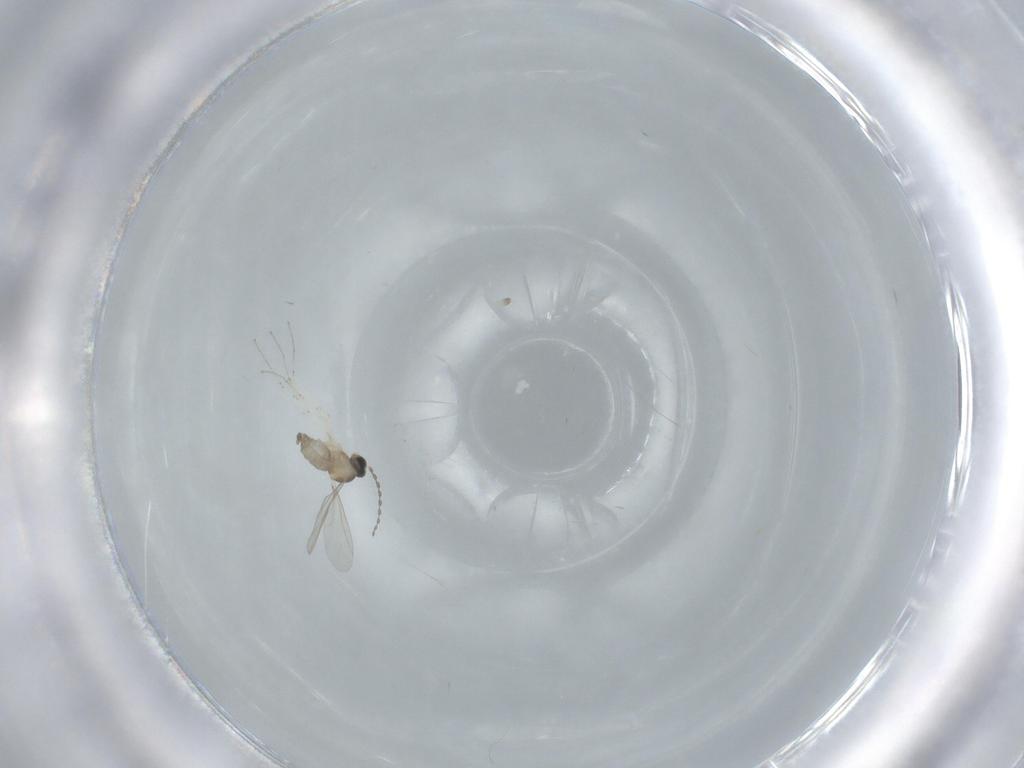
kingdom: Animalia
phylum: Arthropoda
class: Insecta
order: Diptera
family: Cecidomyiidae
